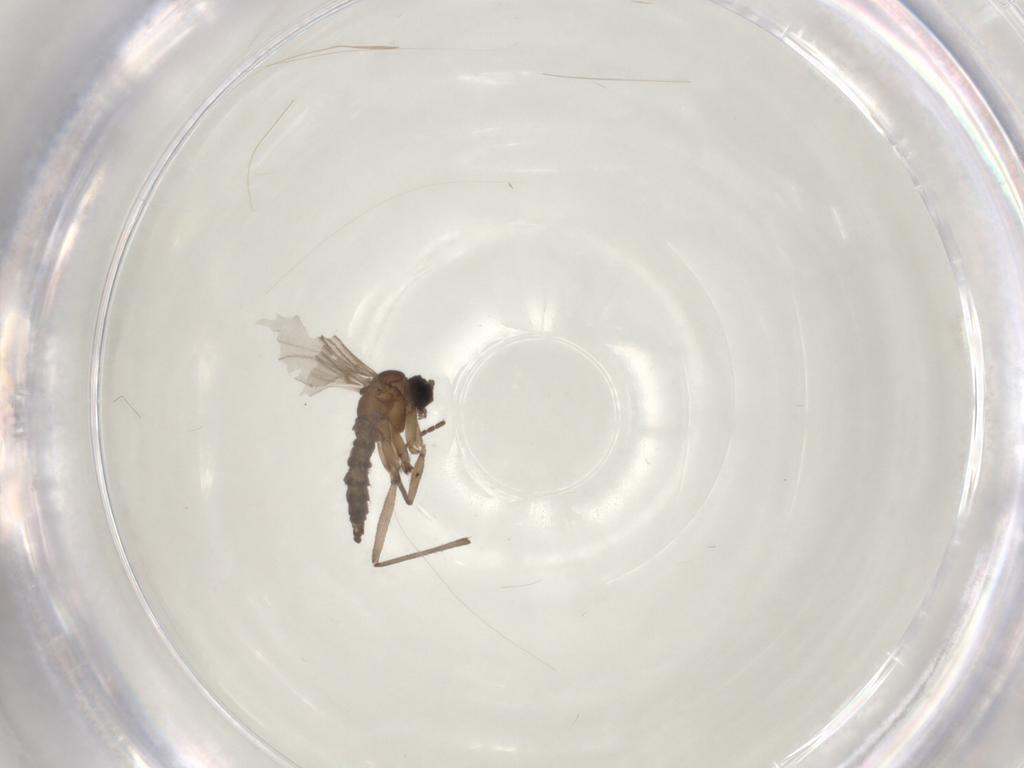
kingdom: Animalia
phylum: Arthropoda
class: Insecta
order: Diptera
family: Sciaridae
